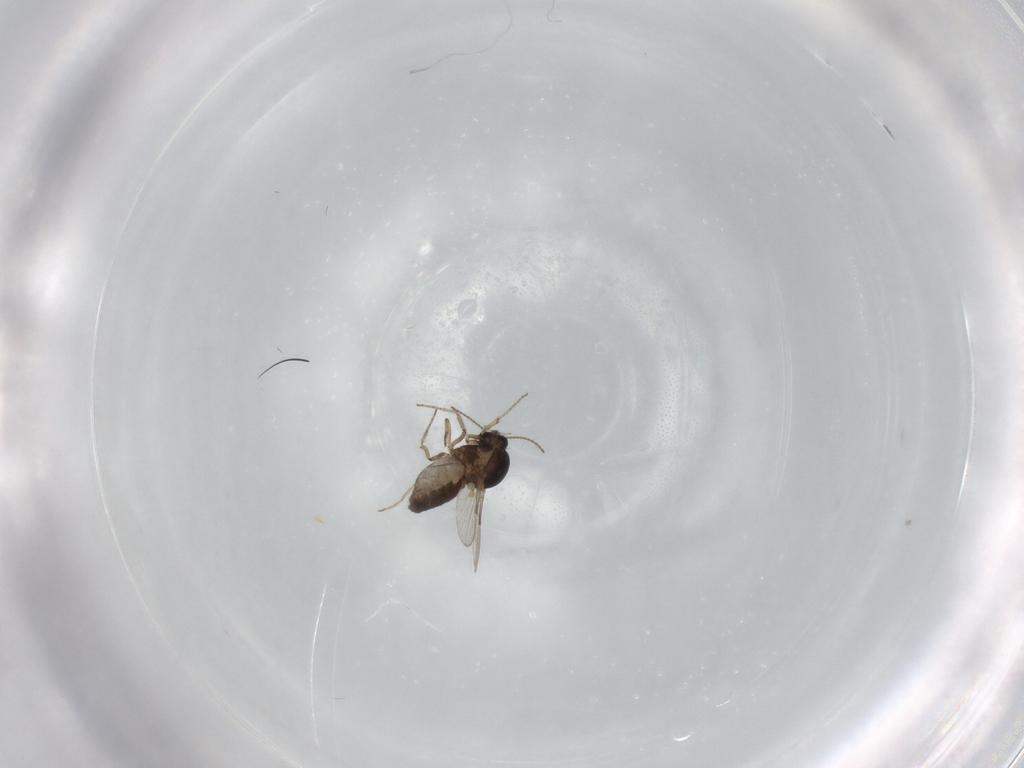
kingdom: Animalia
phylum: Arthropoda
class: Insecta
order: Diptera
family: Ceratopogonidae
